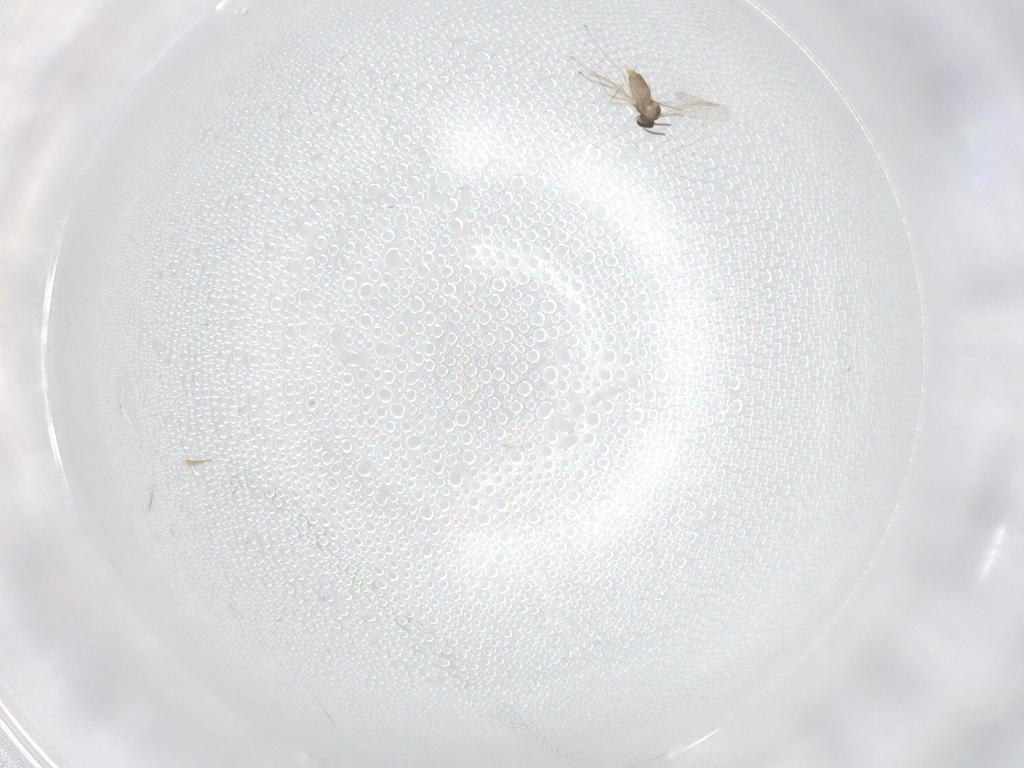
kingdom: Animalia
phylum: Arthropoda
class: Insecta
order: Diptera
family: Cecidomyiidae
